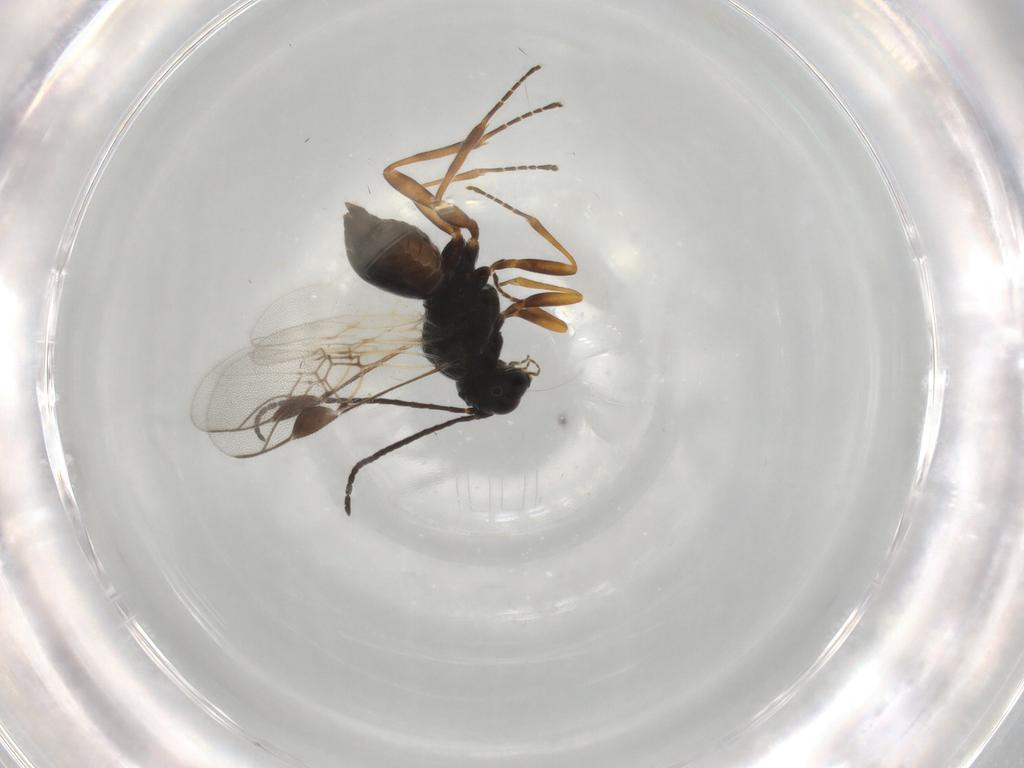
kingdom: Animalia
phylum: Arthropoda
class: Insecta
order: Hymenoptera
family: Braconidae
